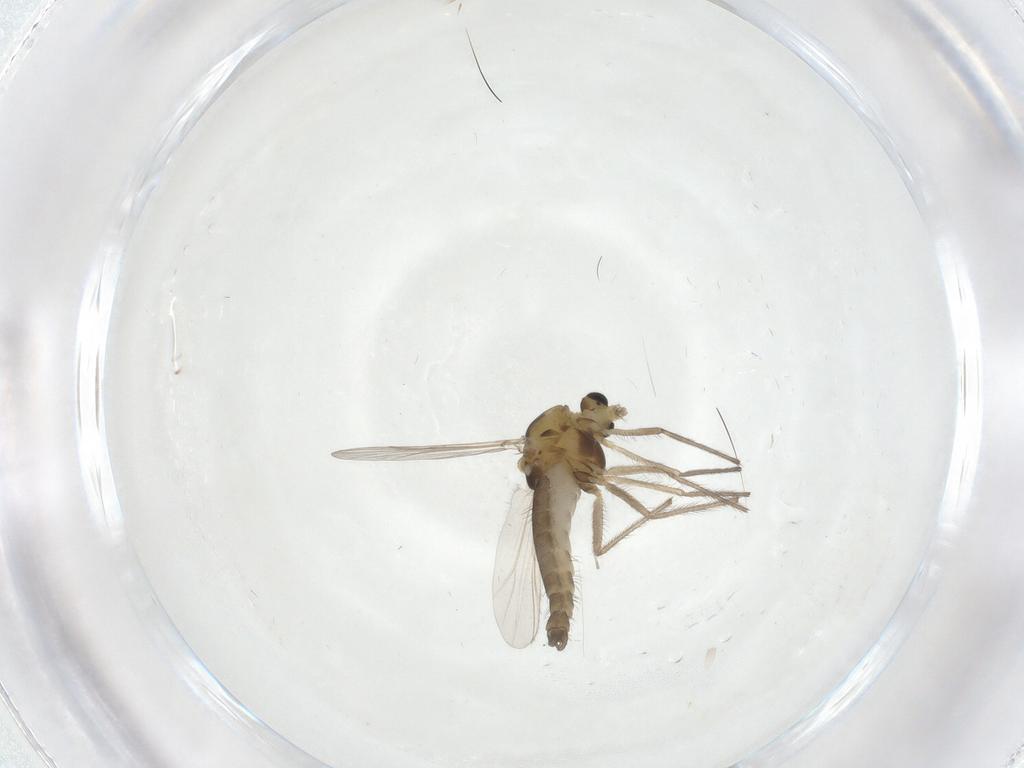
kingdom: Animalia
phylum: Arthropoda
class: Insecta
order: Diptera
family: Chironomidae
